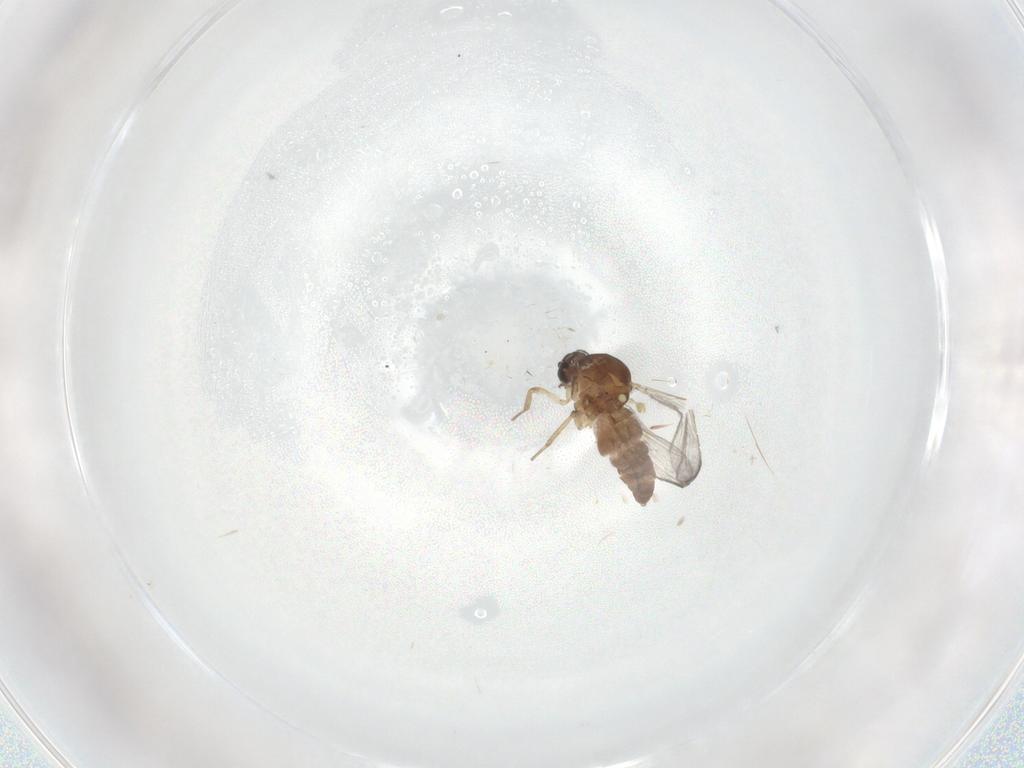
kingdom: Animalia
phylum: Arthropoda
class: Insecta
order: Diptera
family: Ceratopogonidae
